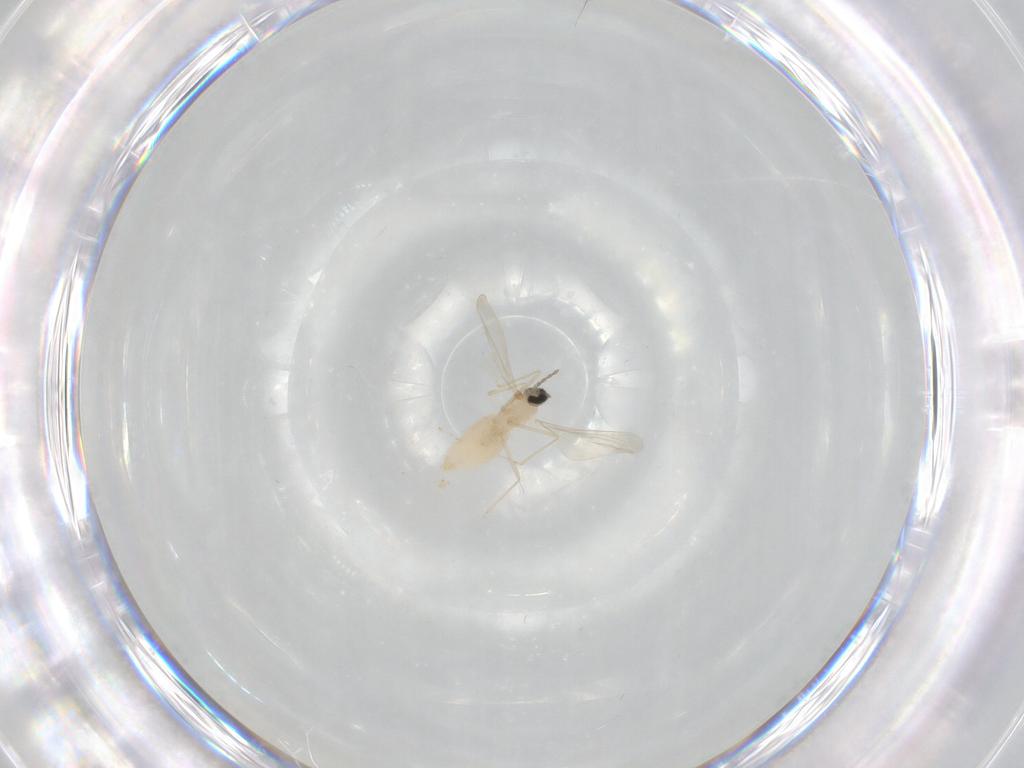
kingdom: Animalia
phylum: Arthropoda
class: Insecta
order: Diptera
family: Cecidomyiidae
